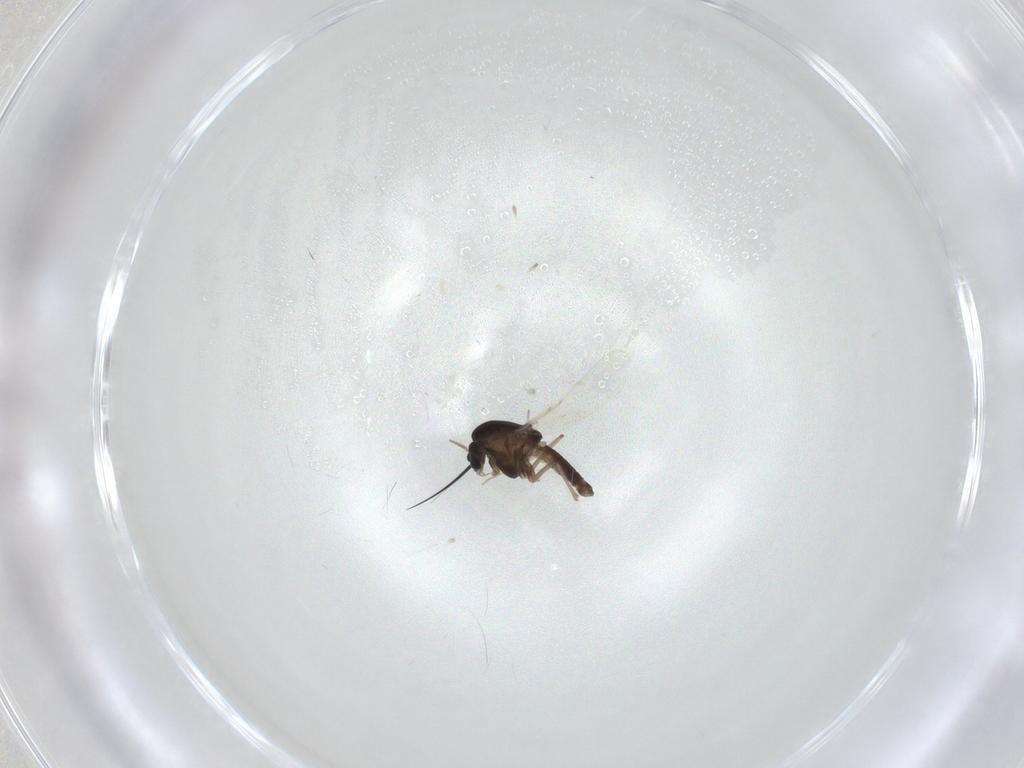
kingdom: Animalia
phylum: Arthropoda
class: Insecta
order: Diptera
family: Chironomidae
